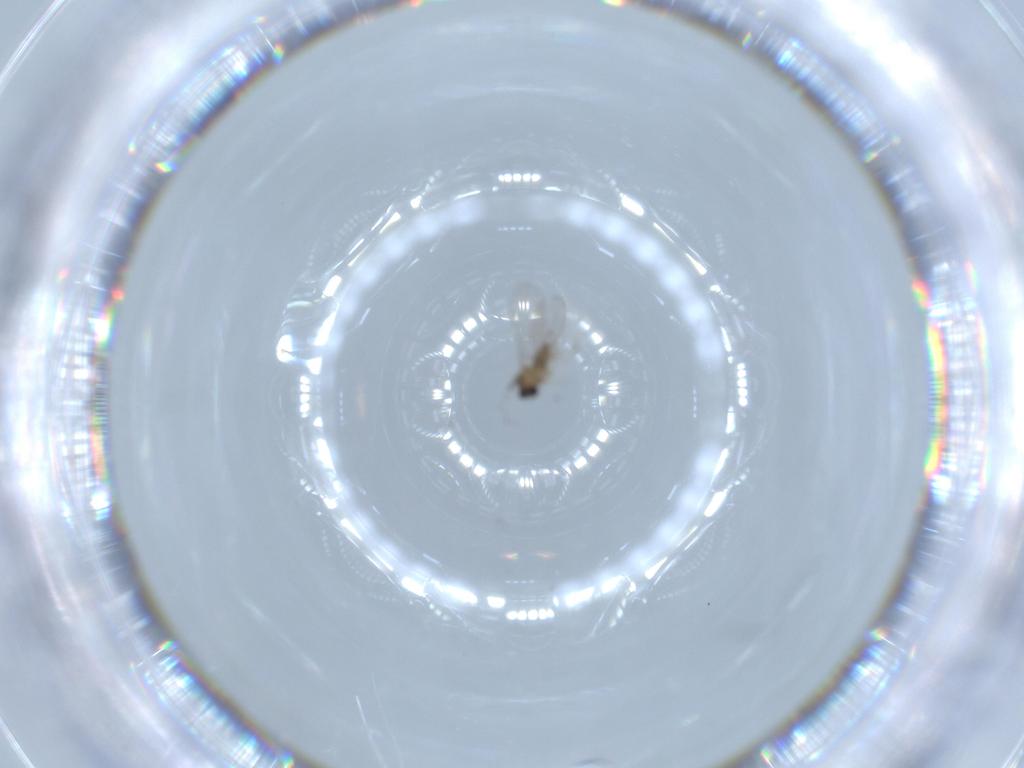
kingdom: Animalia
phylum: Arthropoda
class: Insecta
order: Diptera
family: Cecidomyiidae
